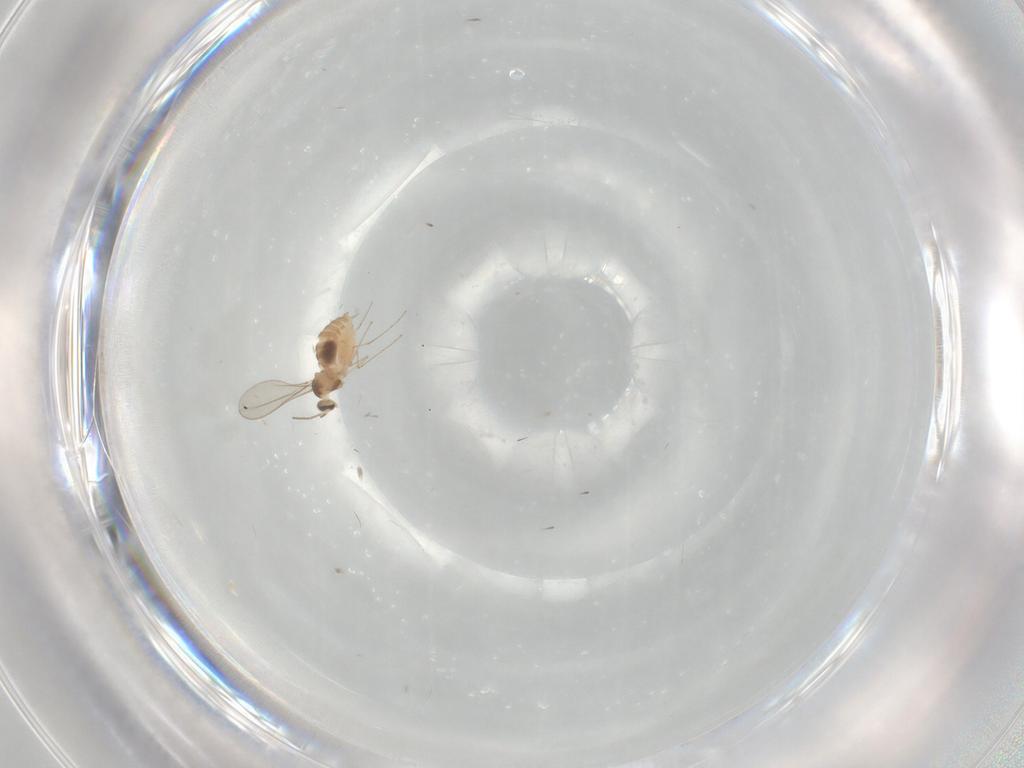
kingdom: Animalia
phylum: Arthropoda
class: Insecta
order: Diptera
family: Cecidomyiidae
